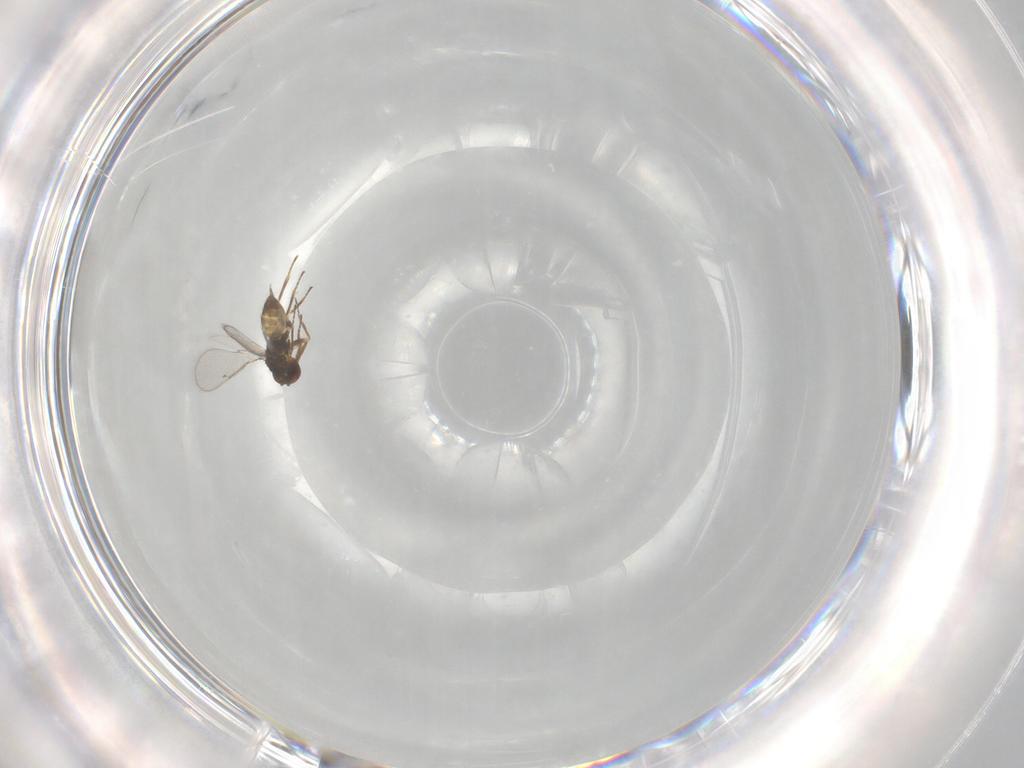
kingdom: Animalia
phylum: Arthropoda
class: Insecta
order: Hymenoptera
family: Eulophidae
